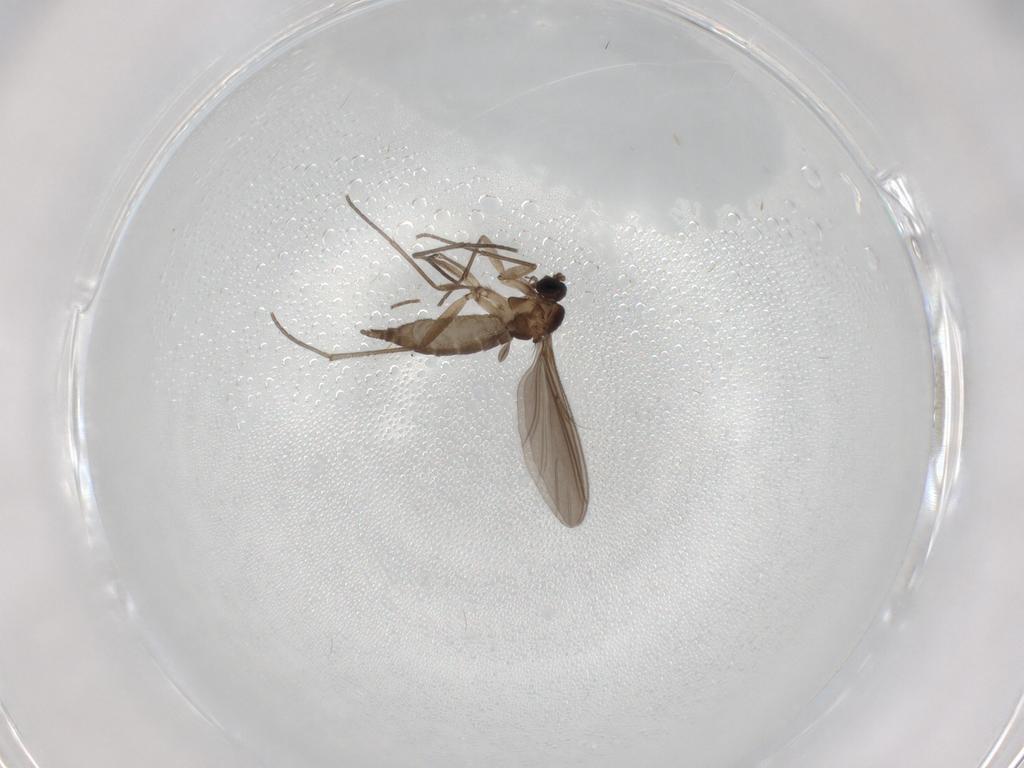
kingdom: Animalia
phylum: Arthropoda
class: Insecta
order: Diptera
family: Sciaridae
